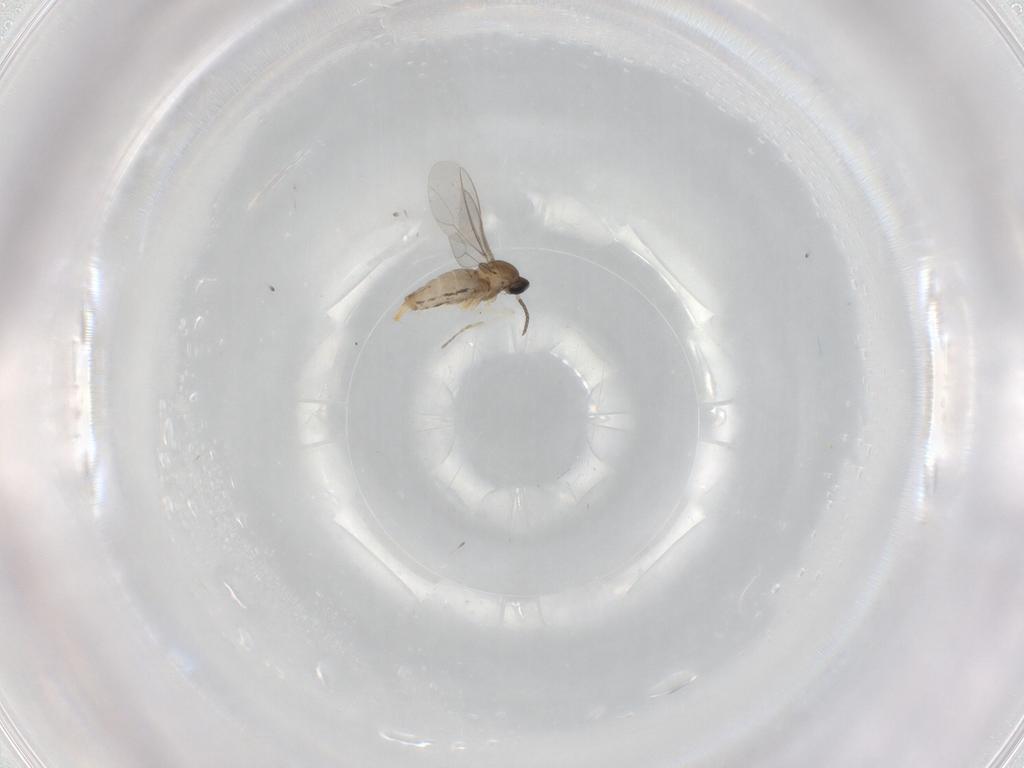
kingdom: Animalia
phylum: Arthropoda
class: Insecta
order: Diptera
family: Cecidomyiidae
